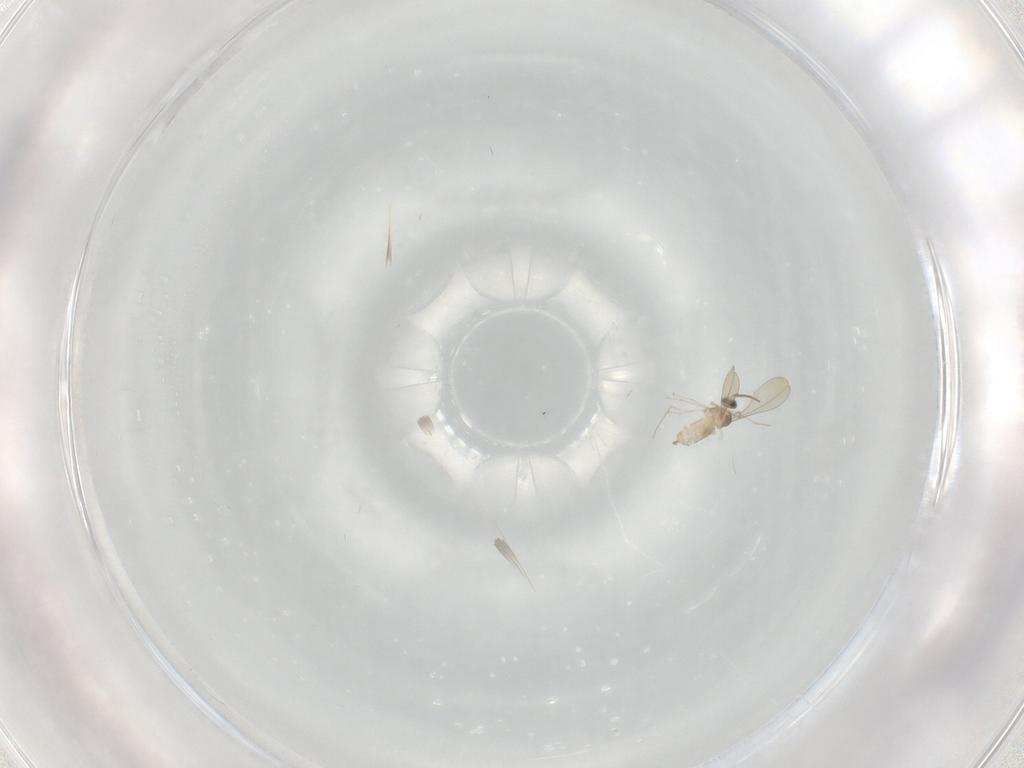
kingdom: Animalia
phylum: Arthropoda
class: Insecta
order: Diptera
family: Cecidomyiidae
